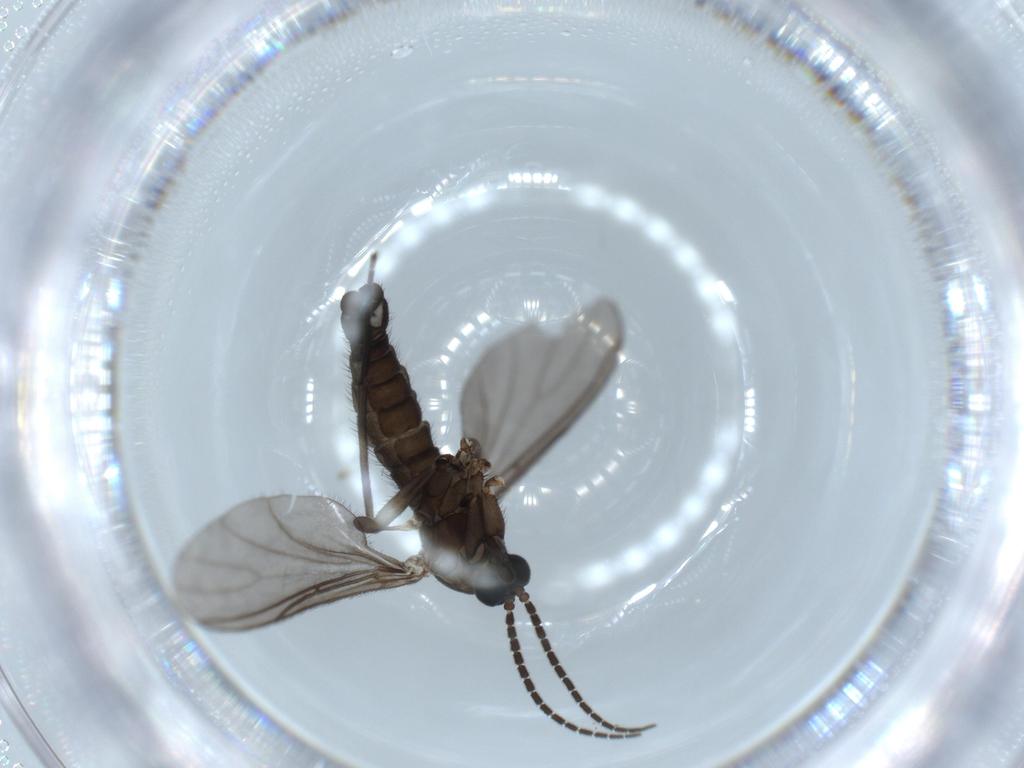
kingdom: Animalia
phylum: Arthropoda
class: Insecta
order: Diptera
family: Sciaridae
